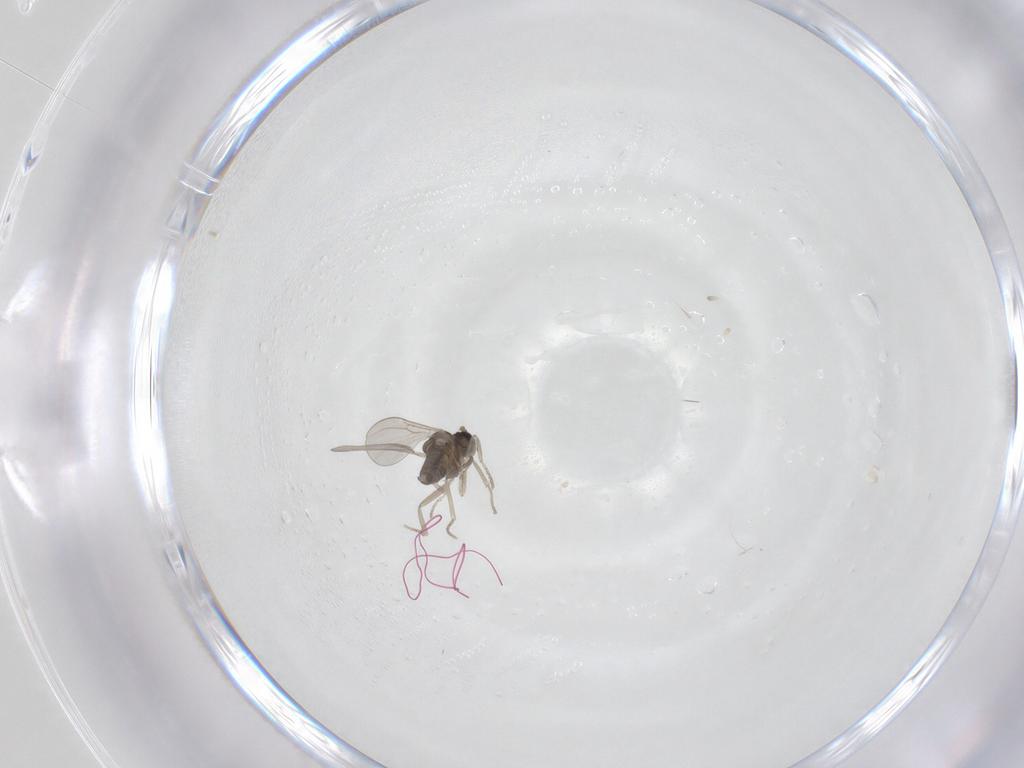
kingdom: Animalia
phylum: Arthropoda
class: Insecta
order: Diptera
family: Cecidomyiidae
